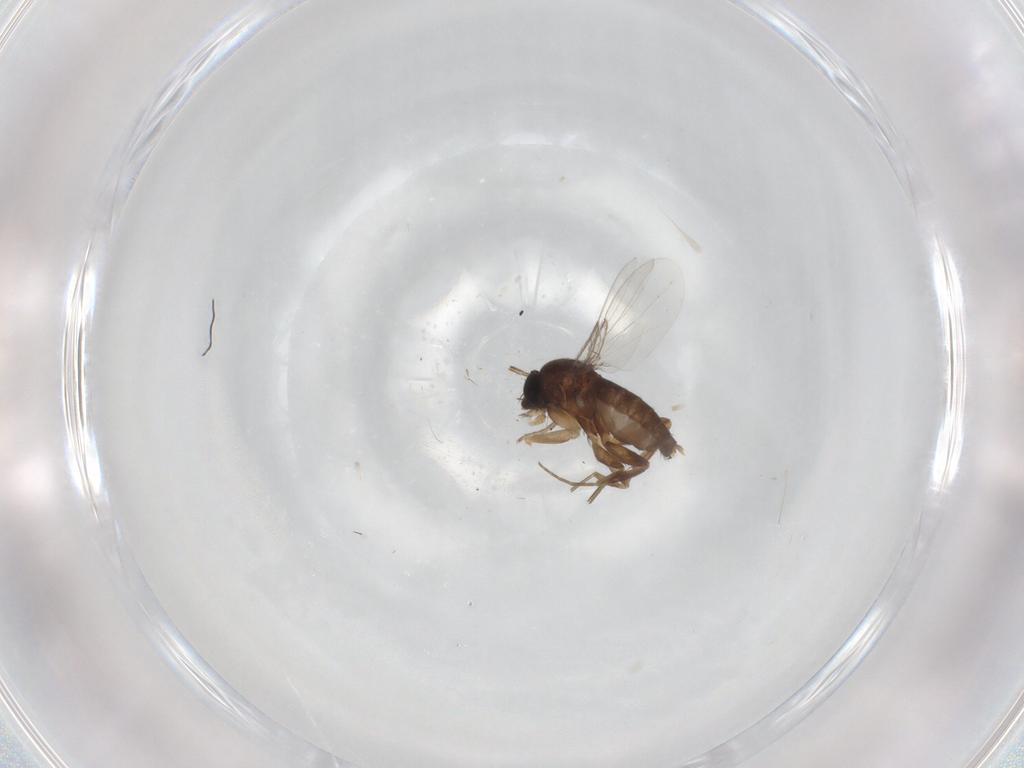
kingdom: Animalia
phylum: Arthropoda
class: Insecta
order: Diptera
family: Phoridae
